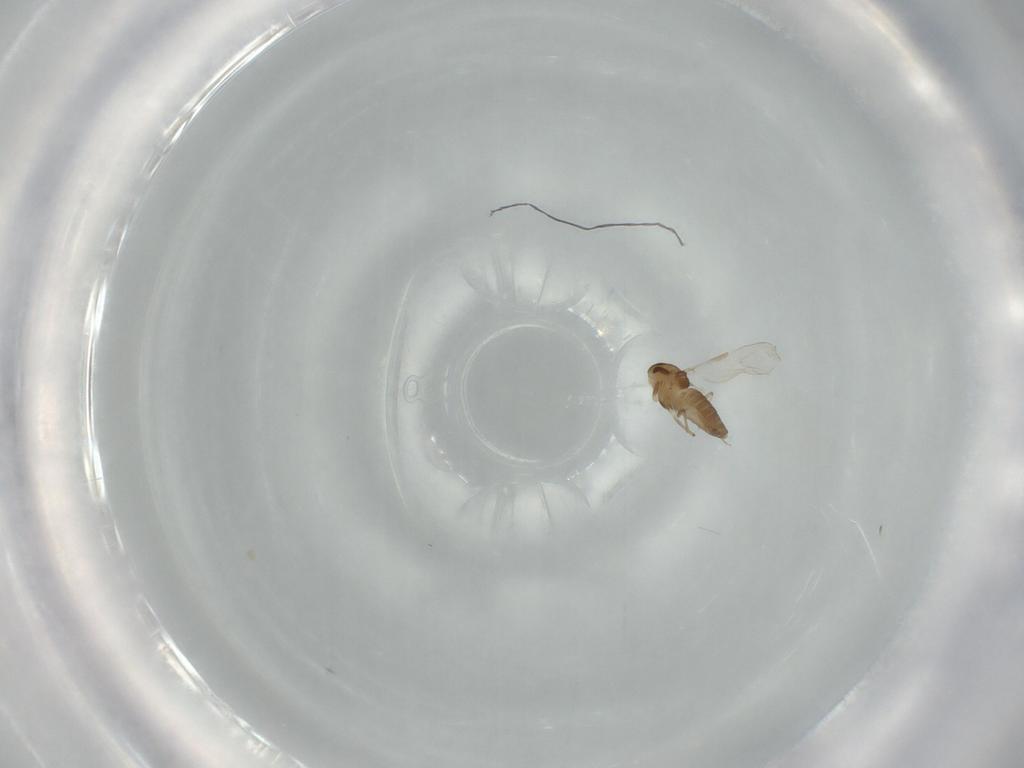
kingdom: Animalia
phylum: Arthropoda
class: Insecta
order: Diptera
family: Chironomidae
